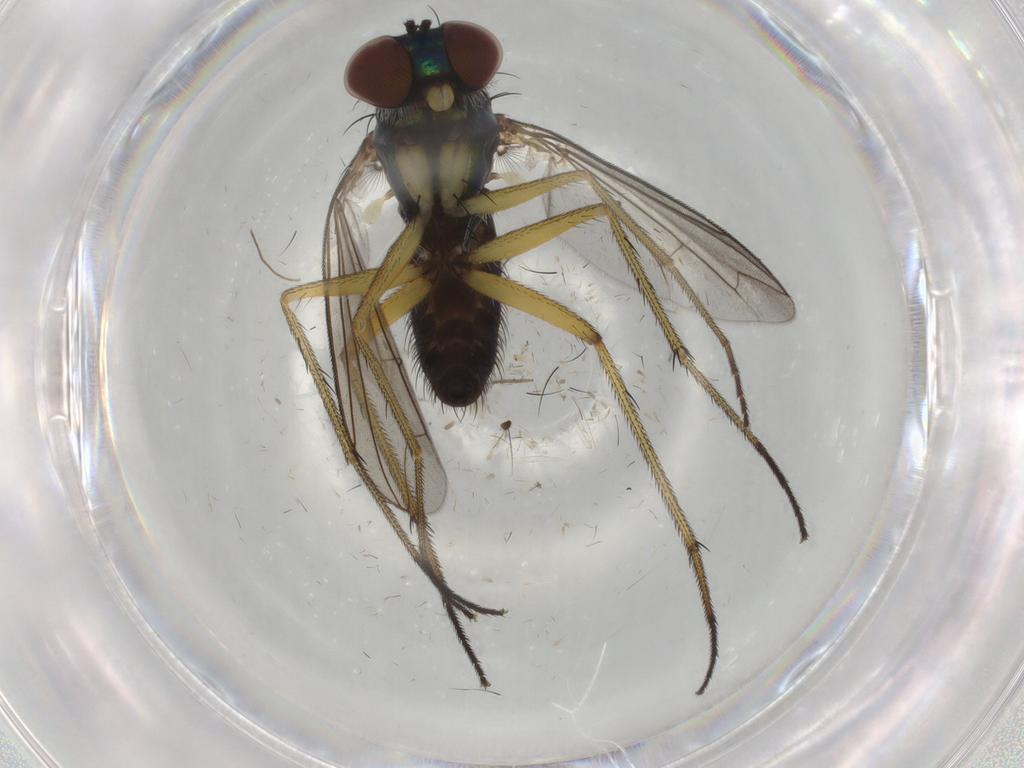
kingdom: Animalia
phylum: Arthropoda
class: Insecta
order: Diptera
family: Dolichopodidae
